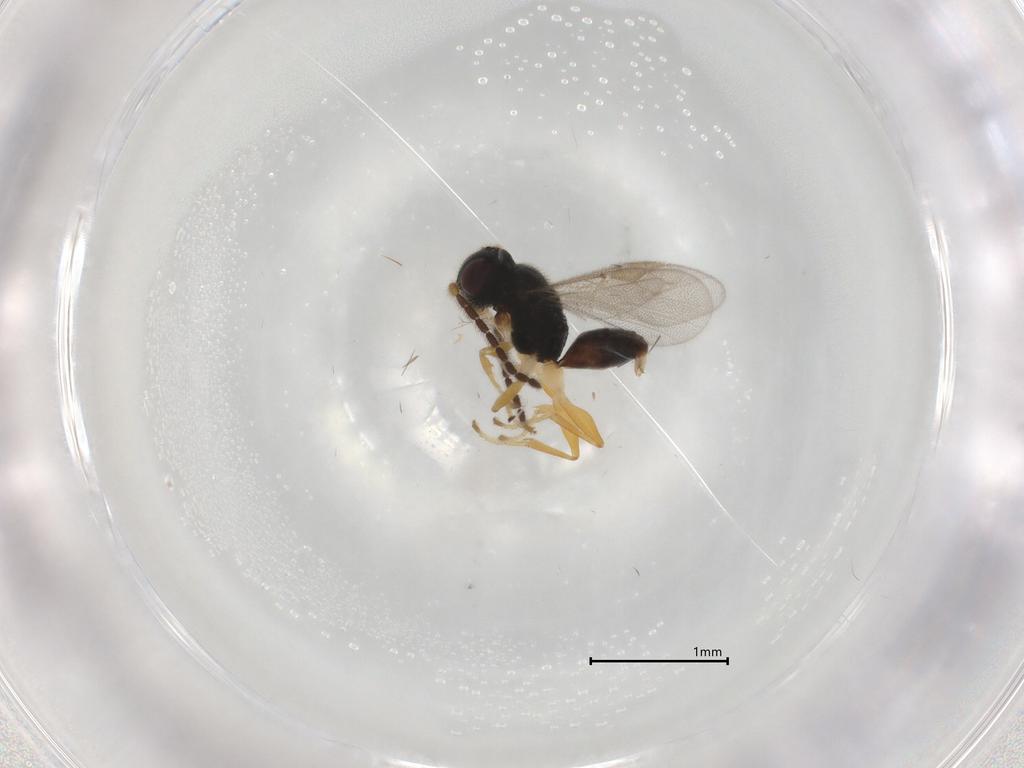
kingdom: Animalia
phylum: Arthropoda
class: Insecta
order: Hymenoptera
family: Dryinidae
